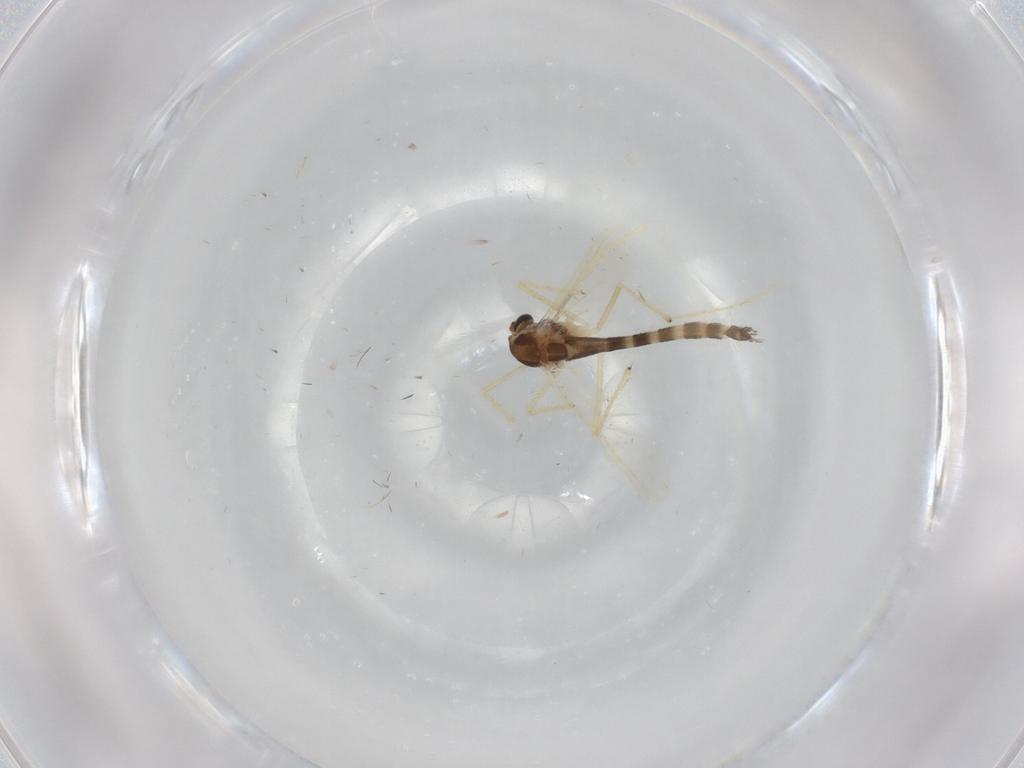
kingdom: Animalia
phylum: Arthropoda
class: Insecta
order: Diptera
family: Chironomidae
